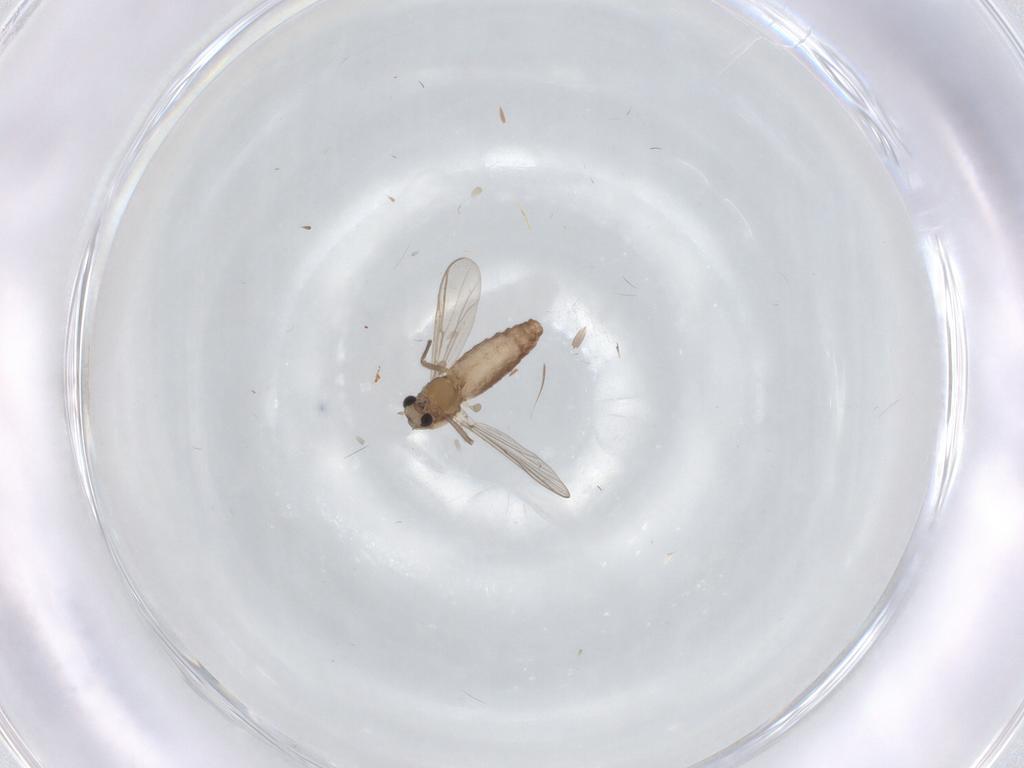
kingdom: Animalia
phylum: Arthropoda
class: Insecta
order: Diptera
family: Chironomidae
